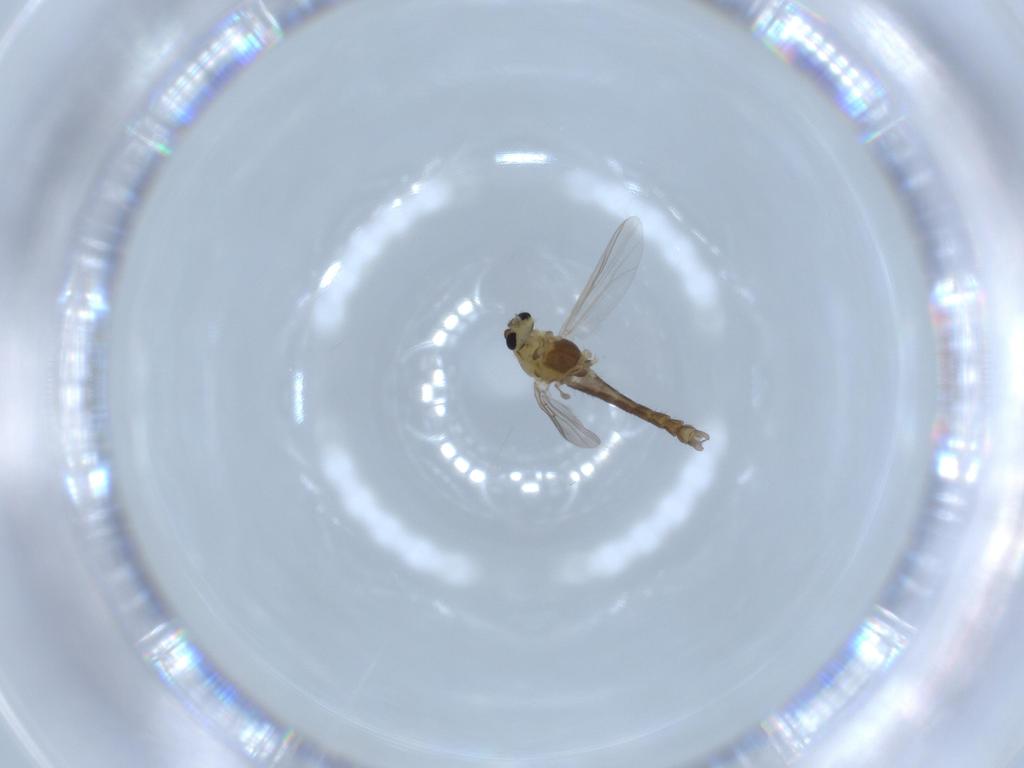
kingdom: Animalia
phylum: Arthropoda
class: Insecta
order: Diptera
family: Chironomidae
